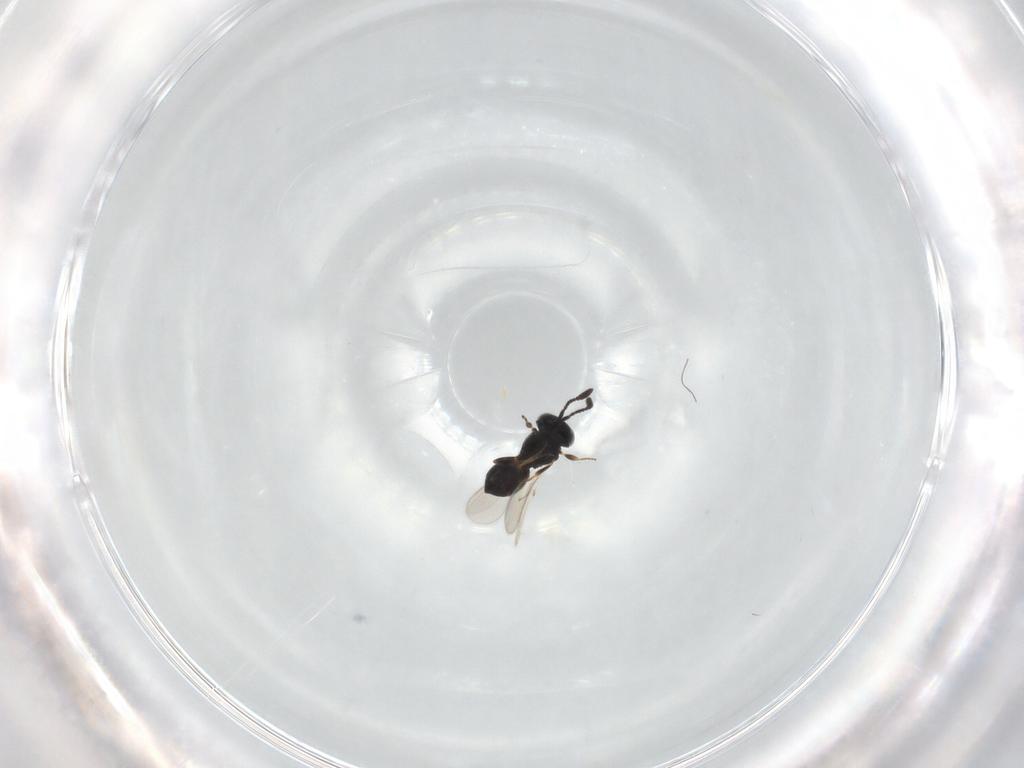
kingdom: Animalia
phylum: Arthropoda
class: Insecta
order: Hymenoptera
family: Scelionidae
